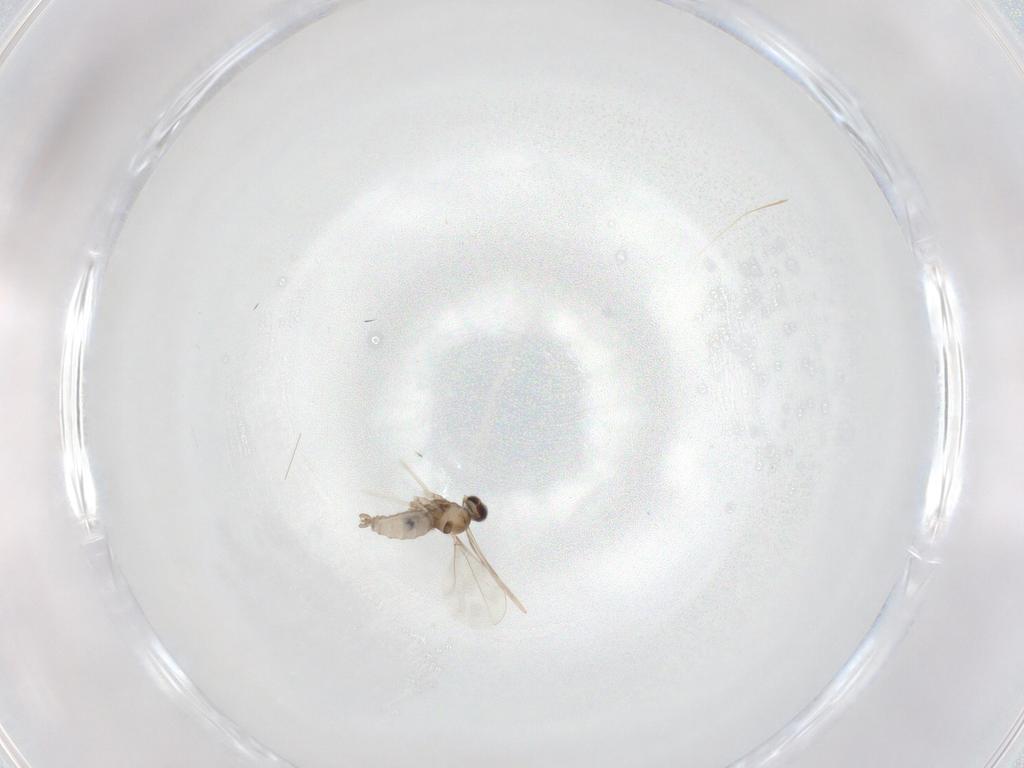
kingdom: Animalia
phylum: Arthropoda
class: Insecta
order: Diptera
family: Cecidomyiidae
